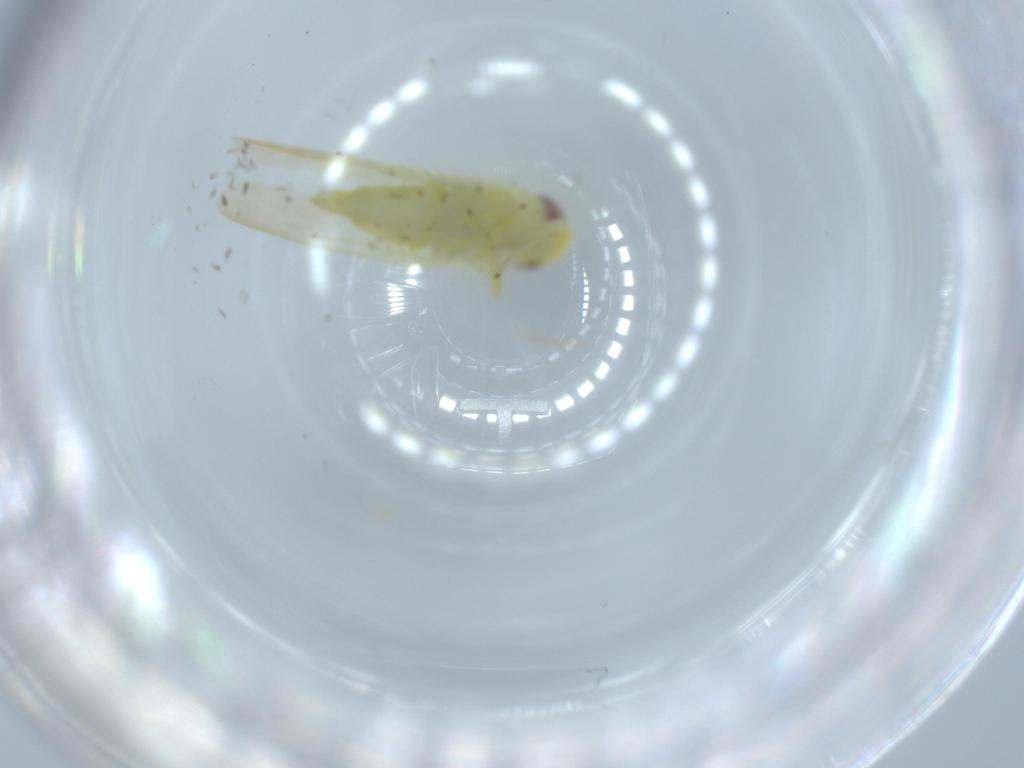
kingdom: Animalia
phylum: Arthropoda
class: Insecta
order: Hemiptera
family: Cicadellidae
